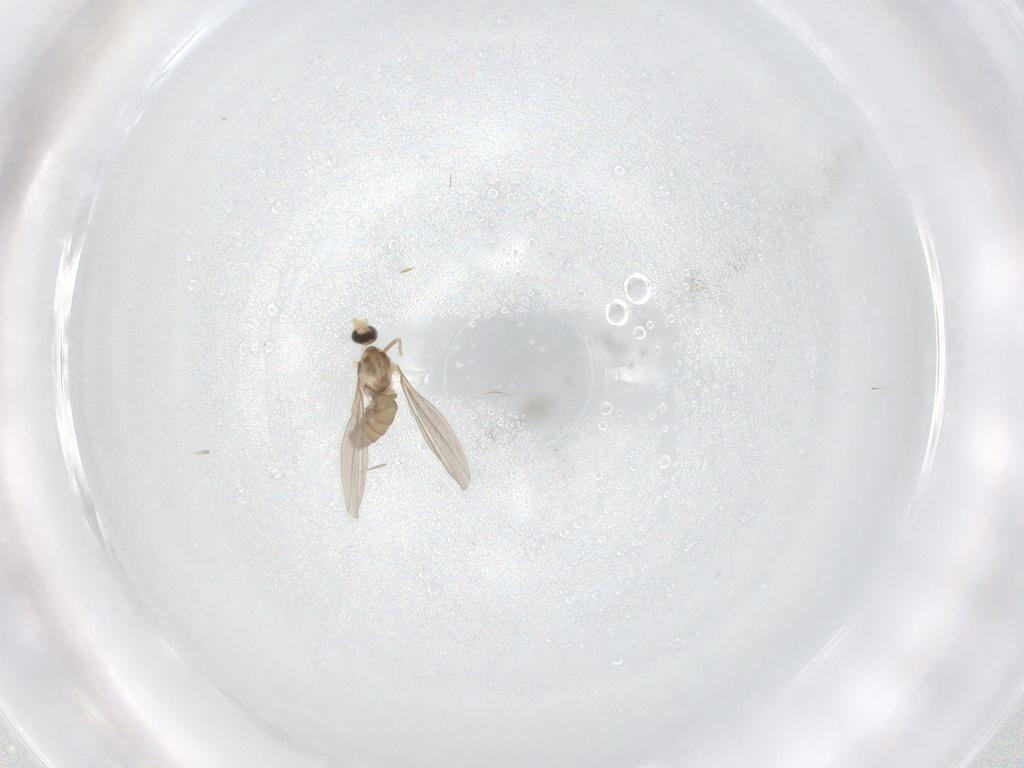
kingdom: Animalia
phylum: Arthropoda
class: Insecta
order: Diptera
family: Cecidomyiidae
